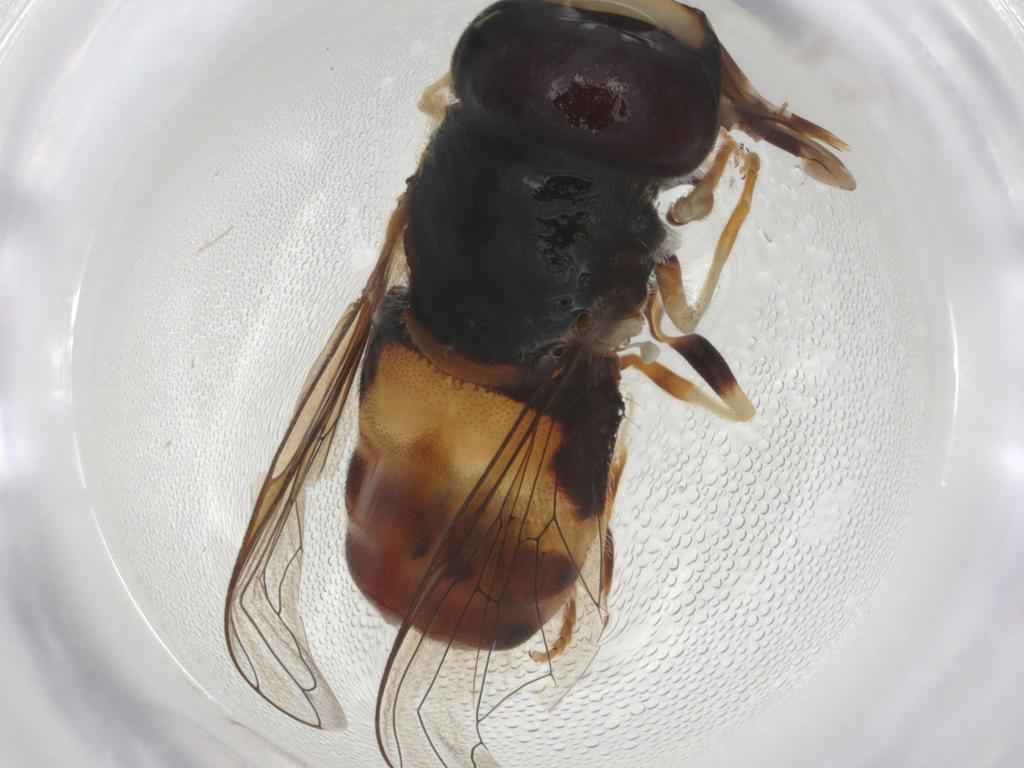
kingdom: Animalia
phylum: Arthropoda
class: Insecta
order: Diptera
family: Syrphidae
